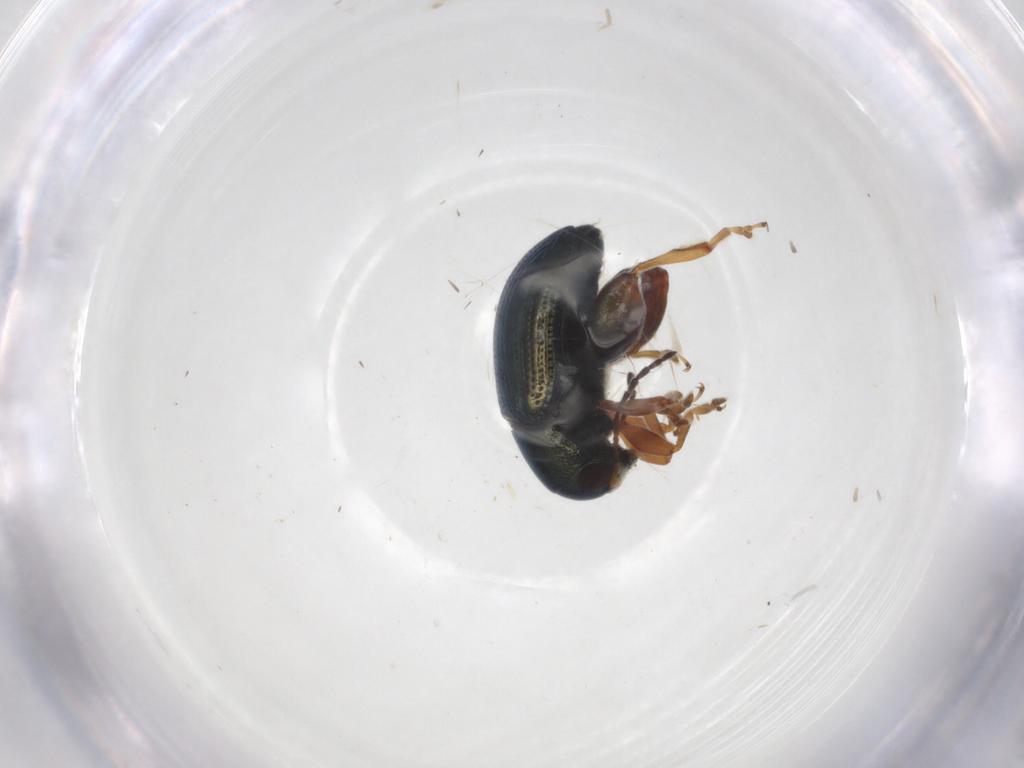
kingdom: Animalia
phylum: Arthropoda
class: Insecta
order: Coleoptera
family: Chrysomelidae
